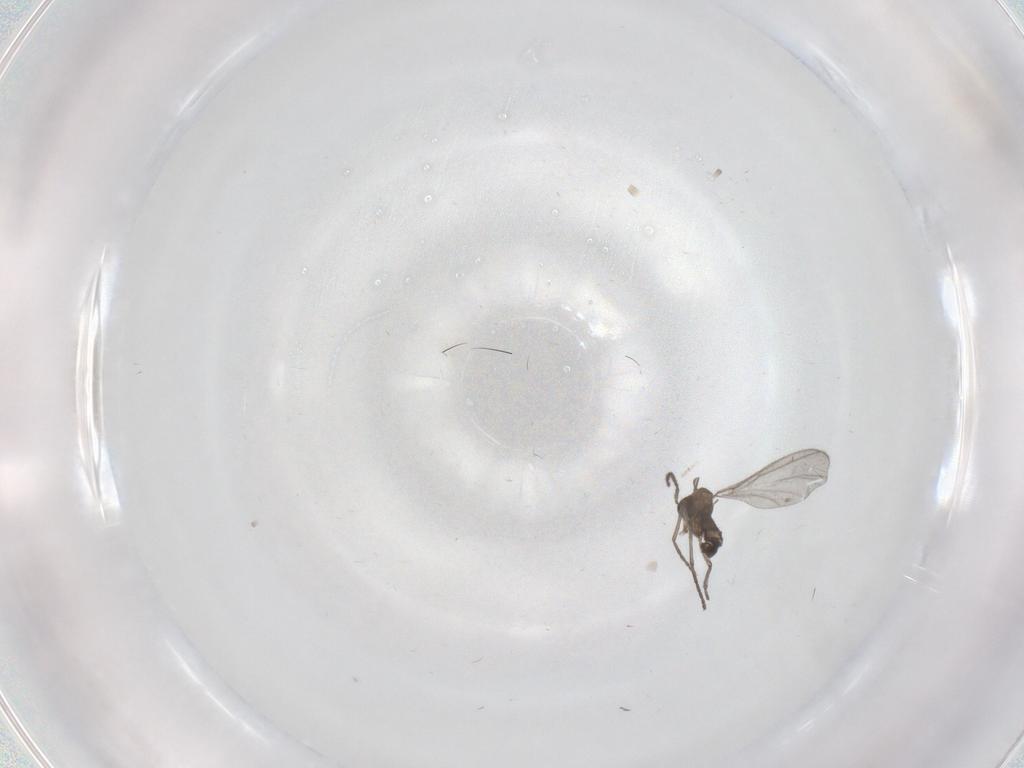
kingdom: Animalia
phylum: Arthropoda
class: Insecta
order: Diptera
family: Sciaridae
